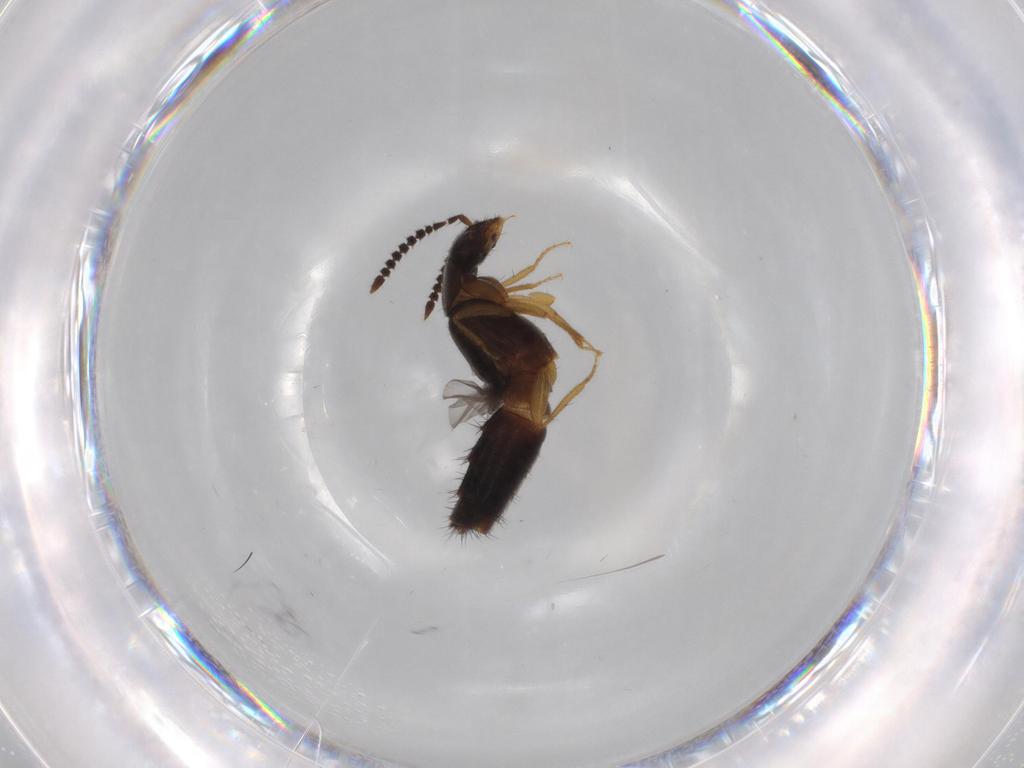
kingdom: Animalia
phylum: Arthropoda
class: Insecta
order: Coleoptera
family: Staphylinidae
